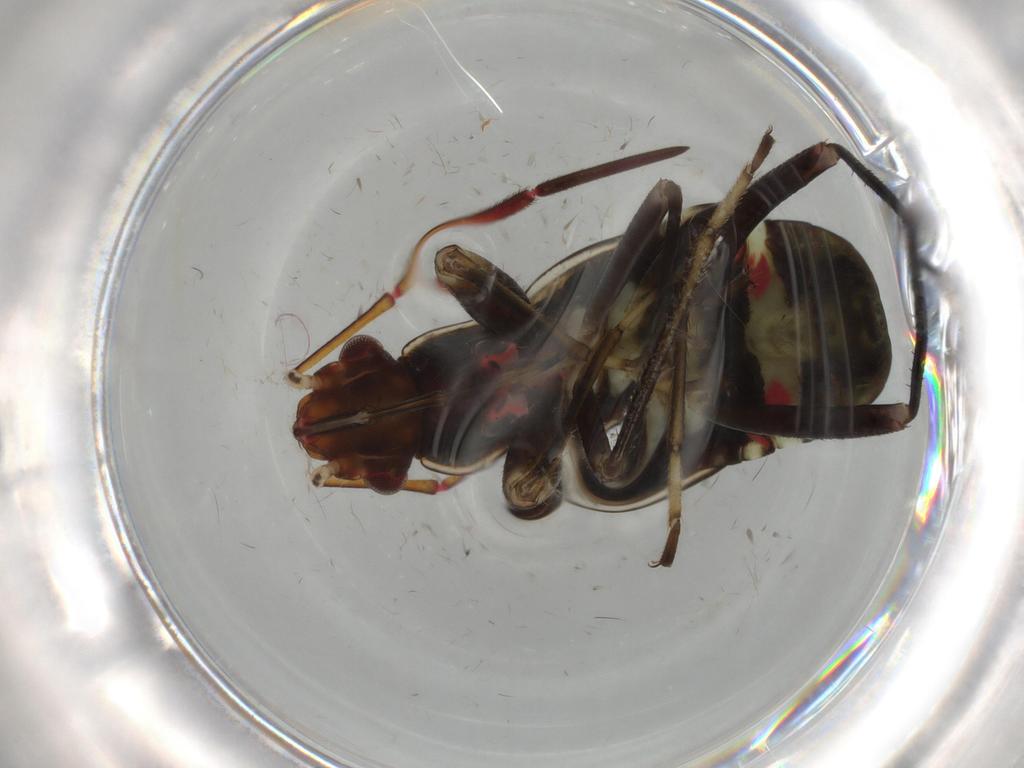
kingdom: Animalia
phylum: Arthropoda
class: Insecta
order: Hemiptera
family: Rhyparochromidae
